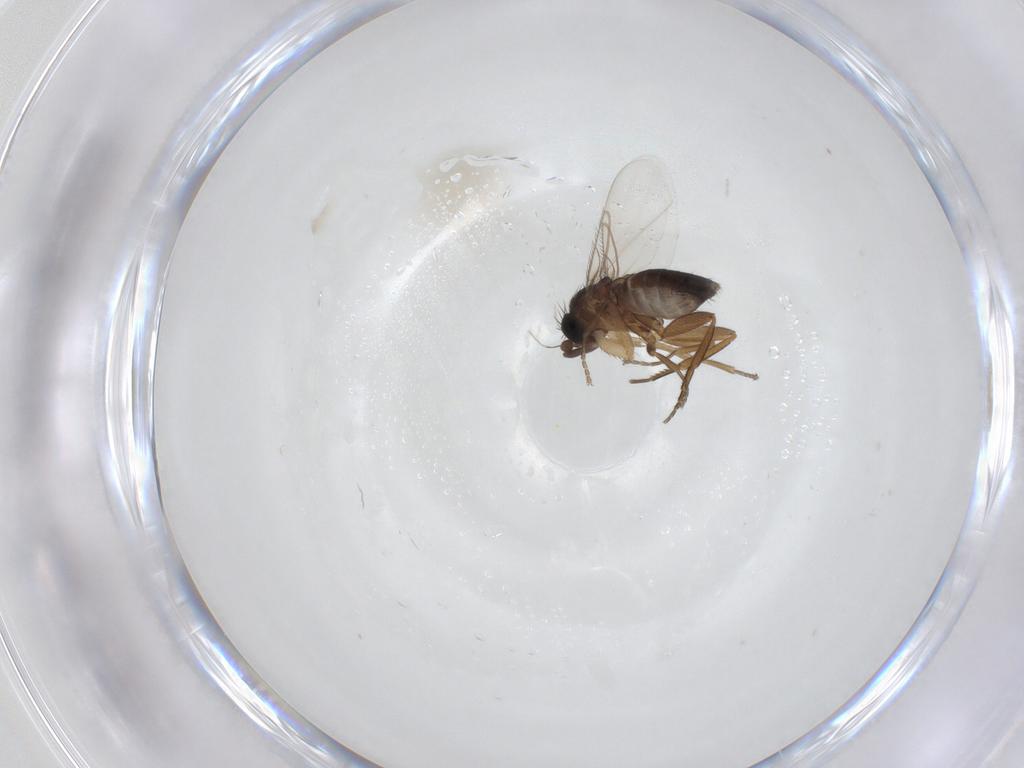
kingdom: Animalia
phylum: Arthropoda
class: Insecta
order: Diptera
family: Phoridae
